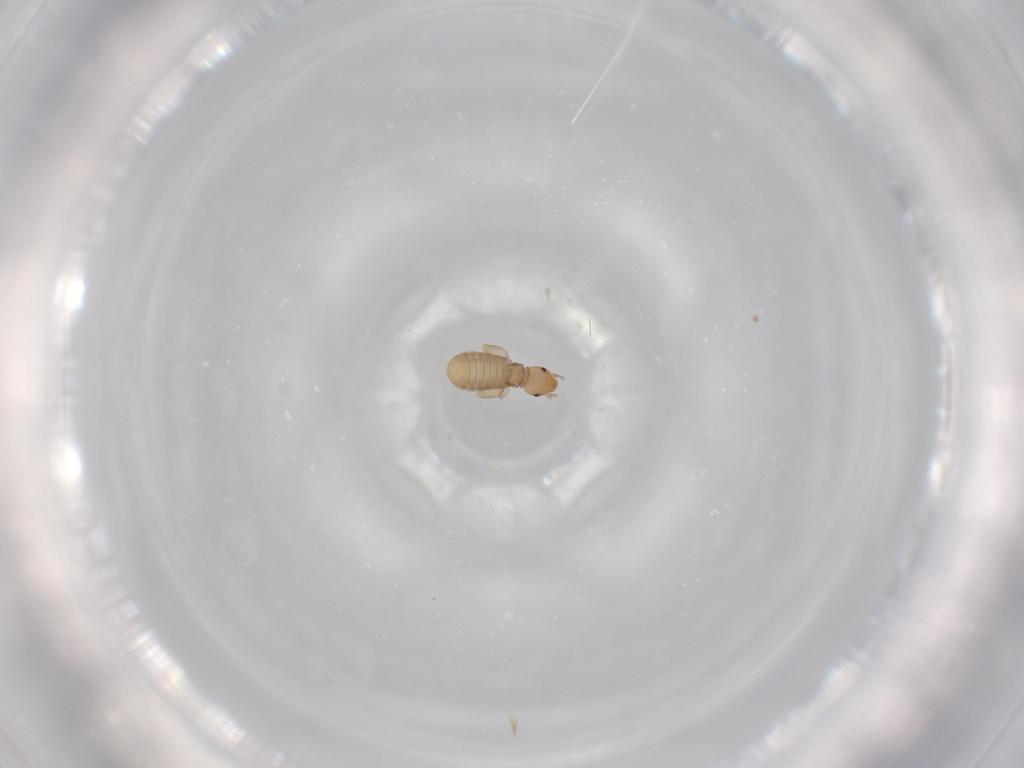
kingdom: Animalia
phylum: Arthropoda
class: Insecta
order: Psocodea
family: Liposcelididae
